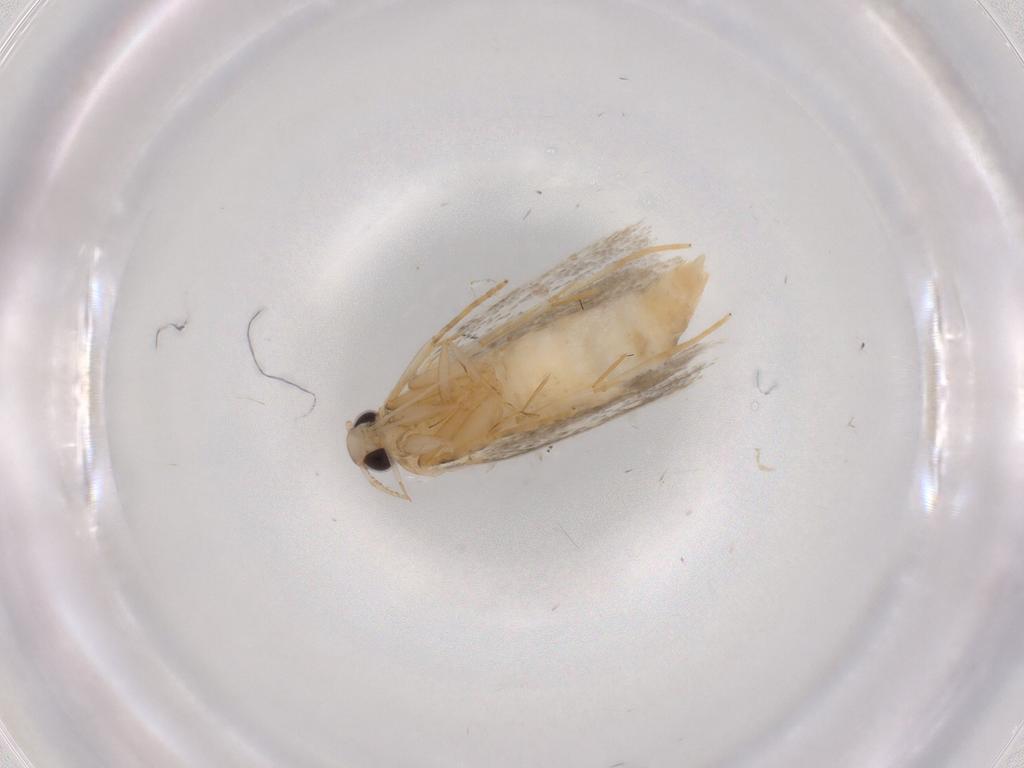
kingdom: Animalia
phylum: Arthropoda
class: Insecta
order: Lepidoptera
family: Autostichidae
